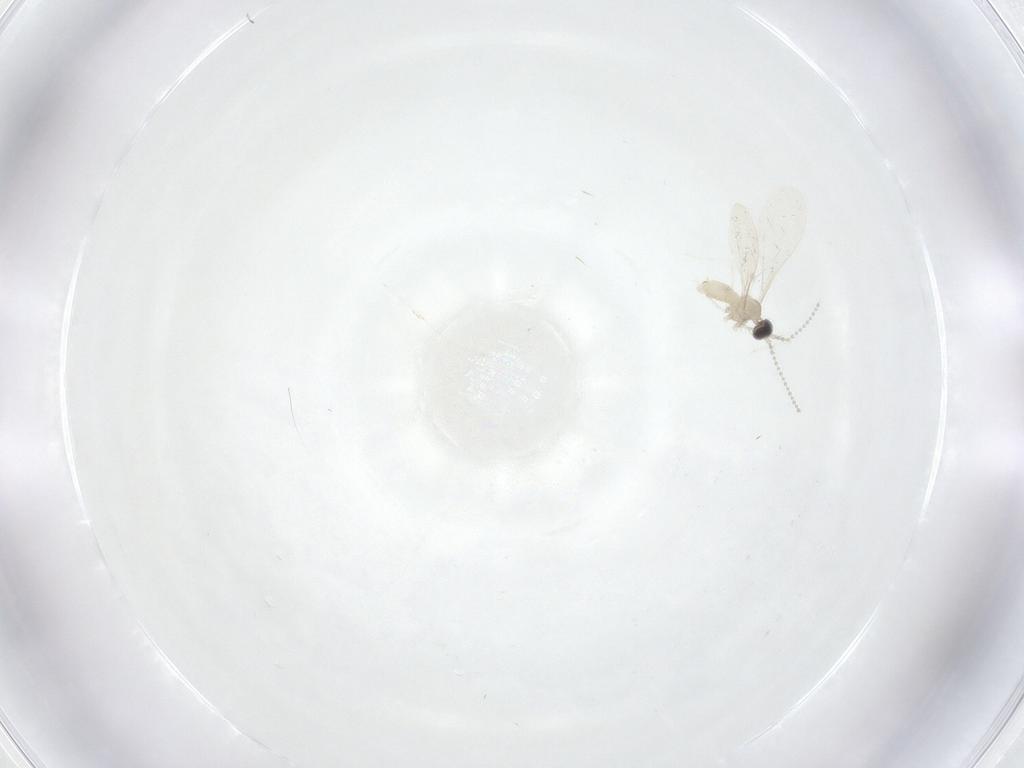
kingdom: Animalia
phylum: Arthropoda
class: Insecta
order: Diptera
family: Cecidomyiidae
